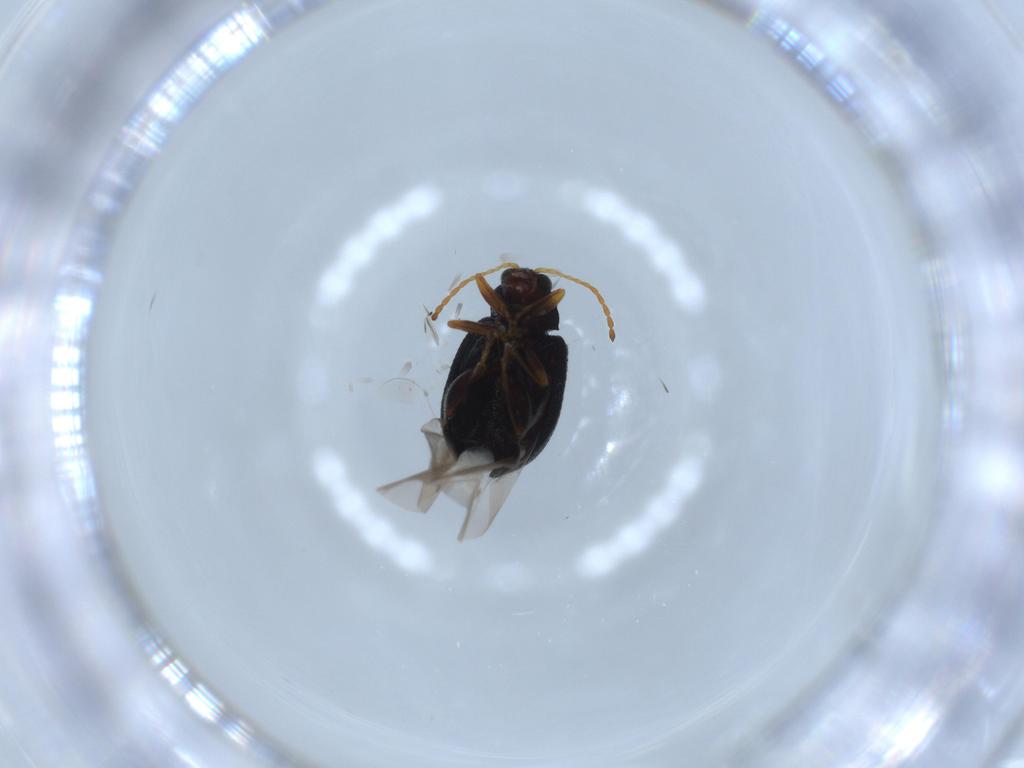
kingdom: Animalia
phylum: Arthropoda
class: Insecta
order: Coleoptera
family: Chrysomelidae
